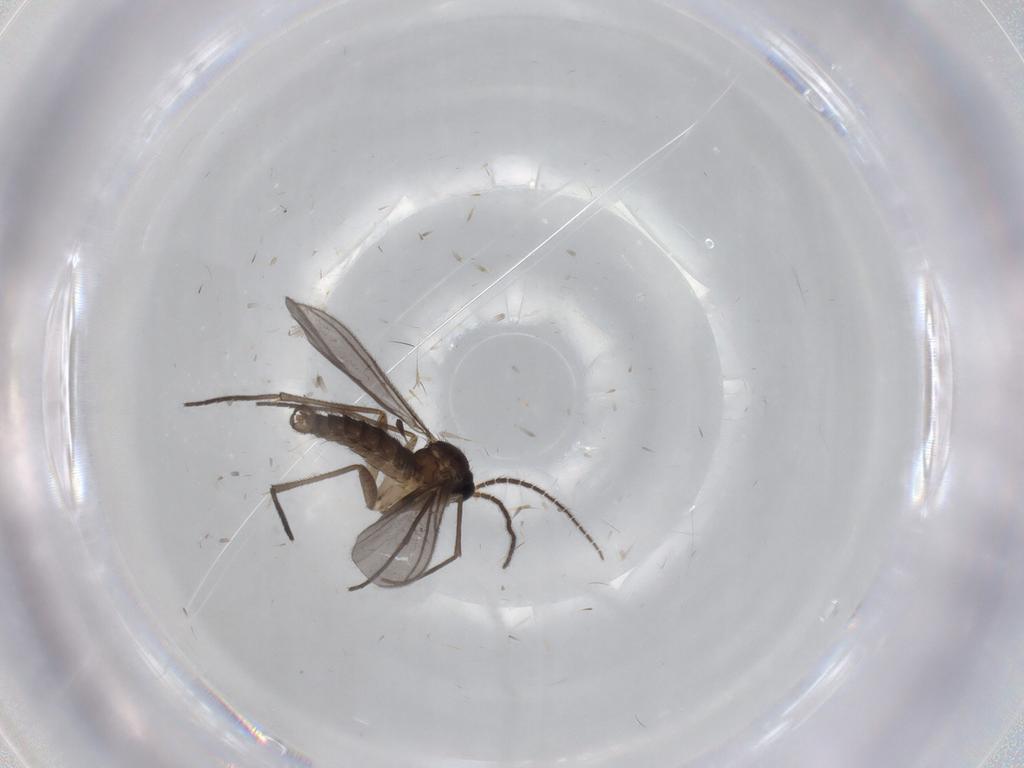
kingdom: Animalia
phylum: Arthropoda
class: Insecta
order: Diptera
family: Sciaridae
